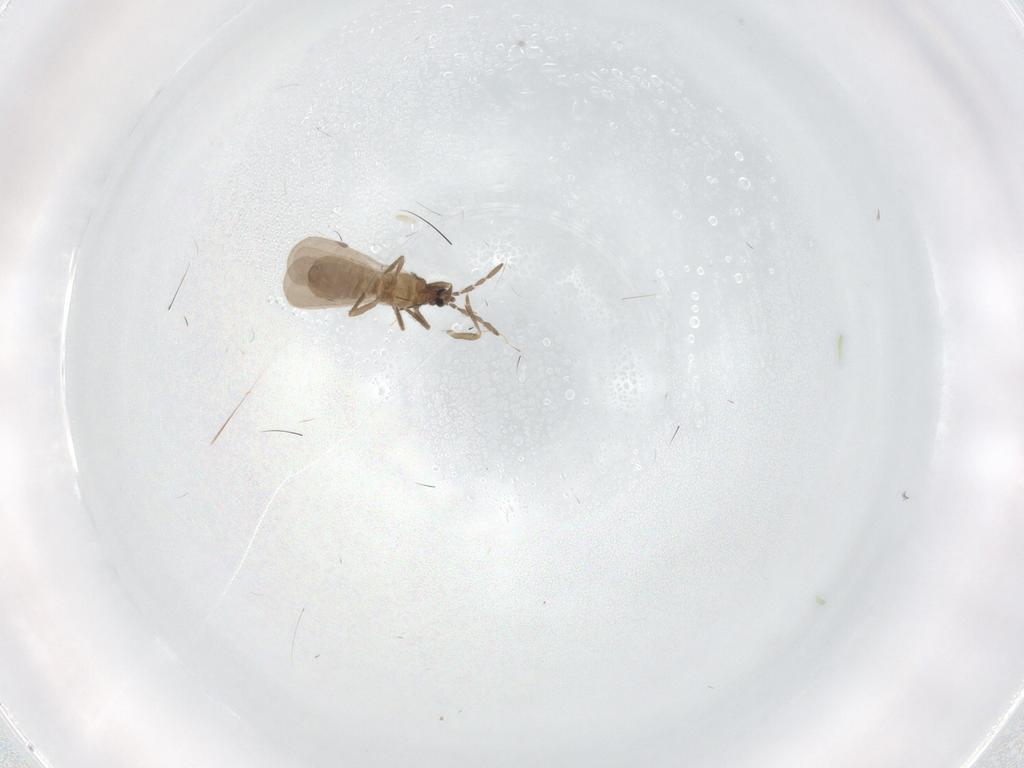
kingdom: Animalia
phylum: Arthropoda
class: Insecta
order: Hemiptera
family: Enicocephalidae
